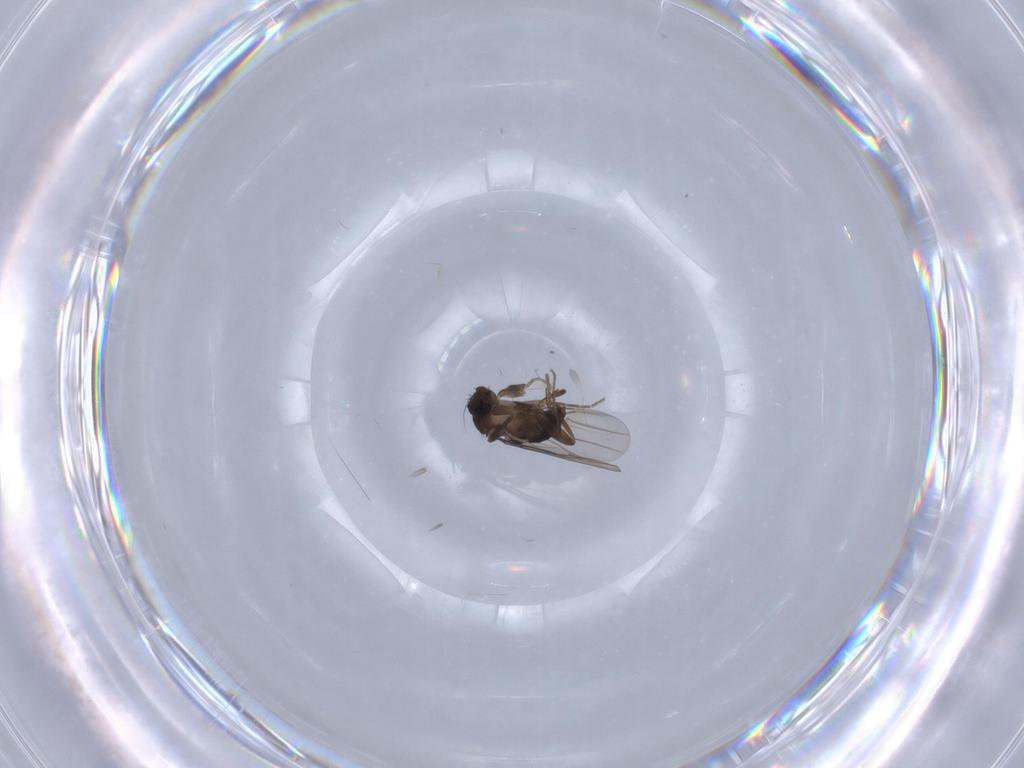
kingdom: Animalia
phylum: Arthropoda
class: Insecta
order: Diptera
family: Phoridae
